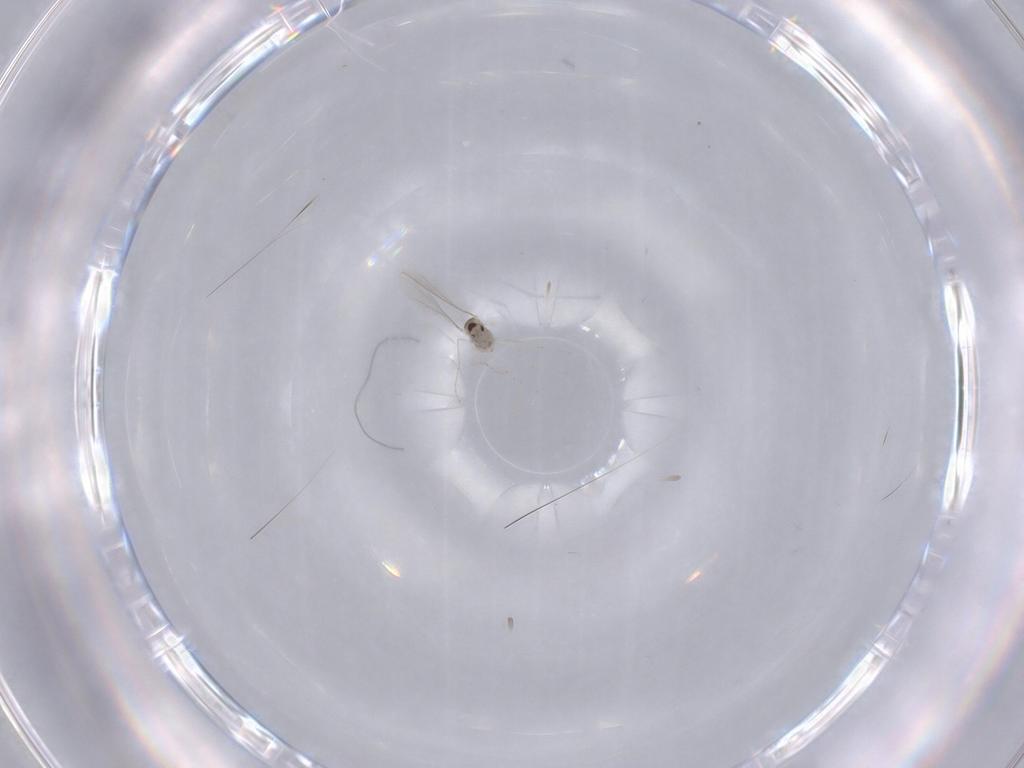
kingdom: Animalia
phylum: Arthropoda
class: Insecta
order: Diptera
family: Cecidomyiidae
